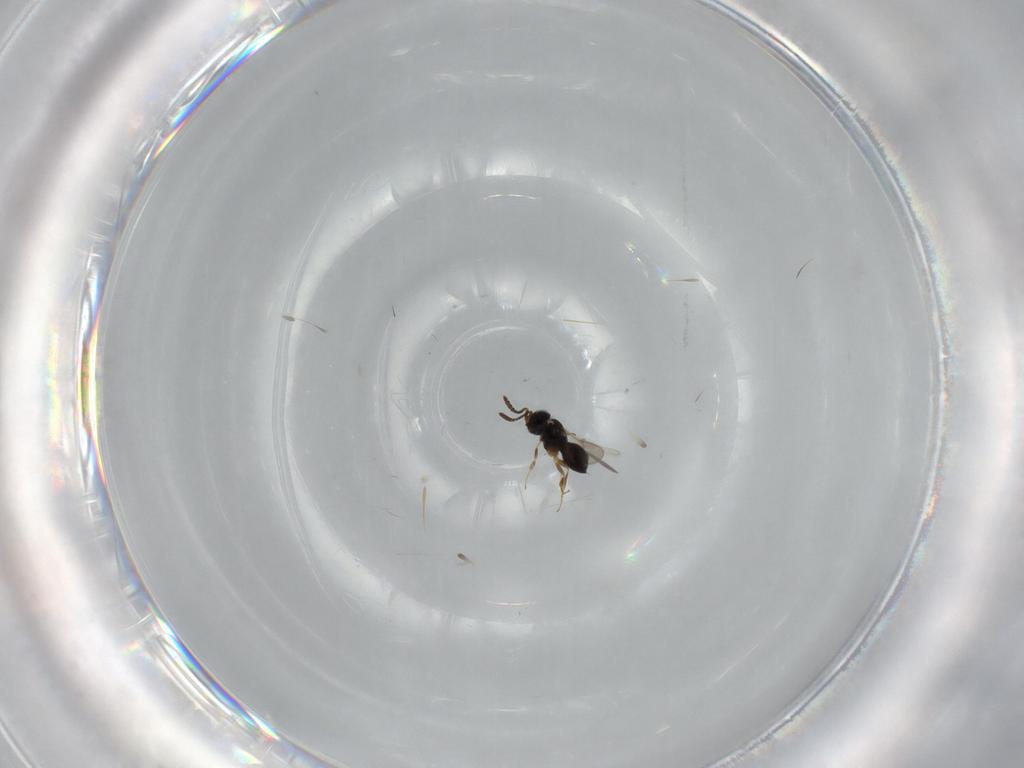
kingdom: Animalia
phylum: Arthropoda
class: Insecta
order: Hymenoptera
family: Scelionidae
